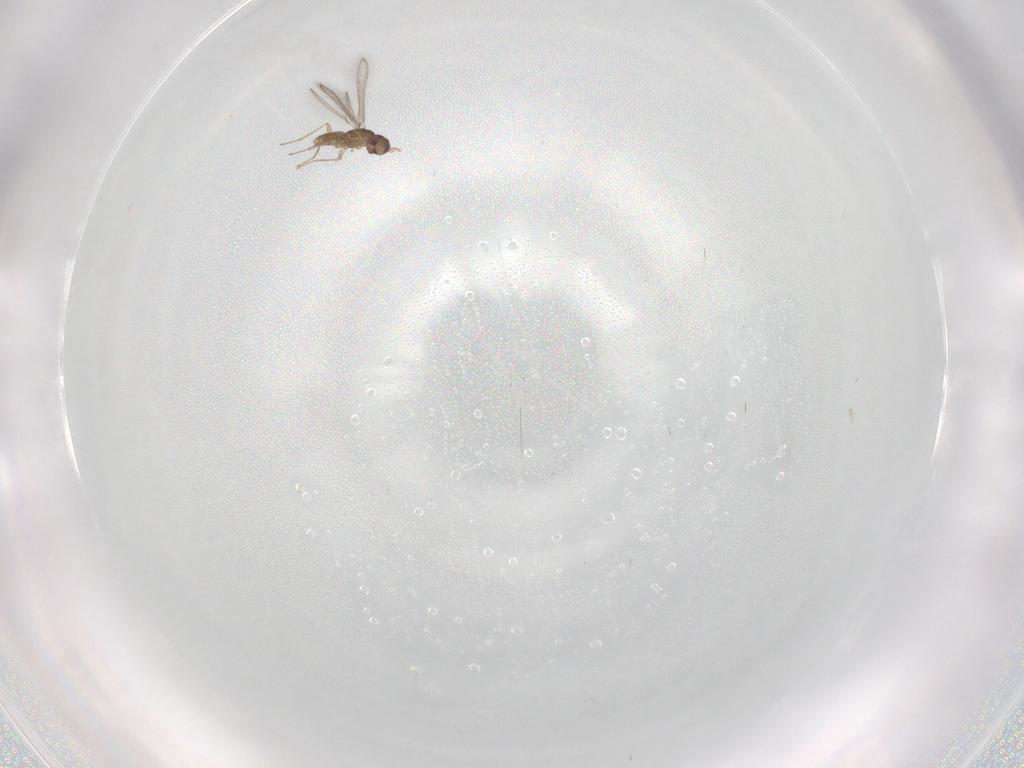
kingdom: Animalia
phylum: Arthropoda
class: Insecta
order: Hymenoptera
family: Mymaridae
